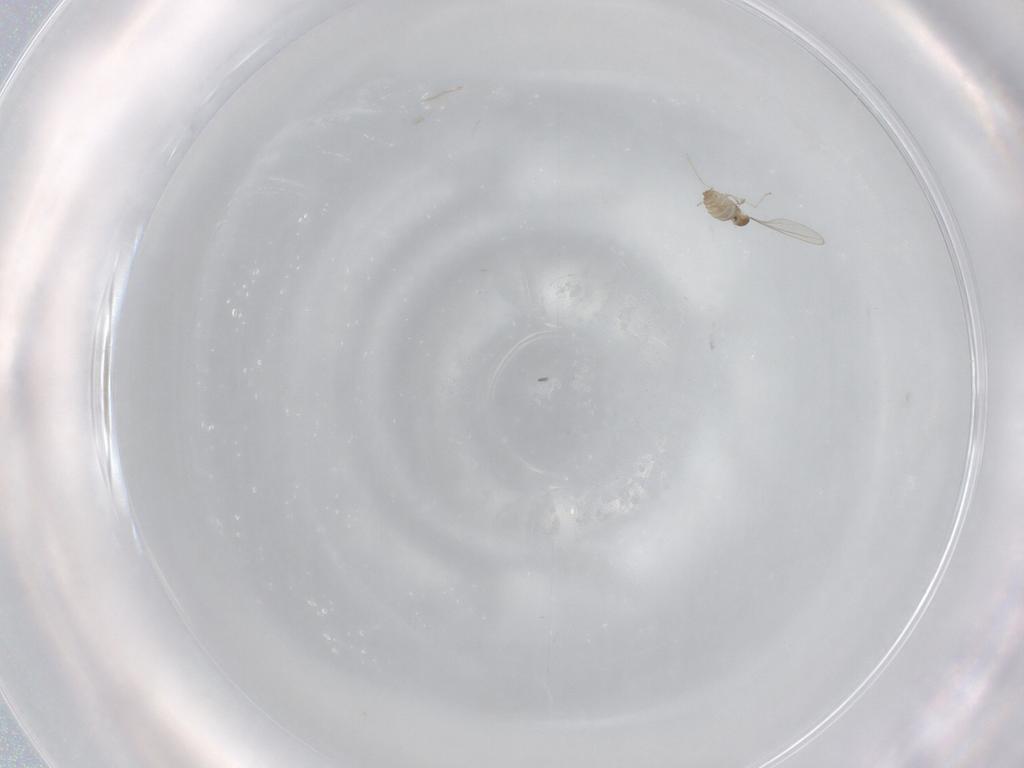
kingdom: Animalia
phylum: Arthropoda
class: Insecta
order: Diptera
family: Cecidomyiidae
